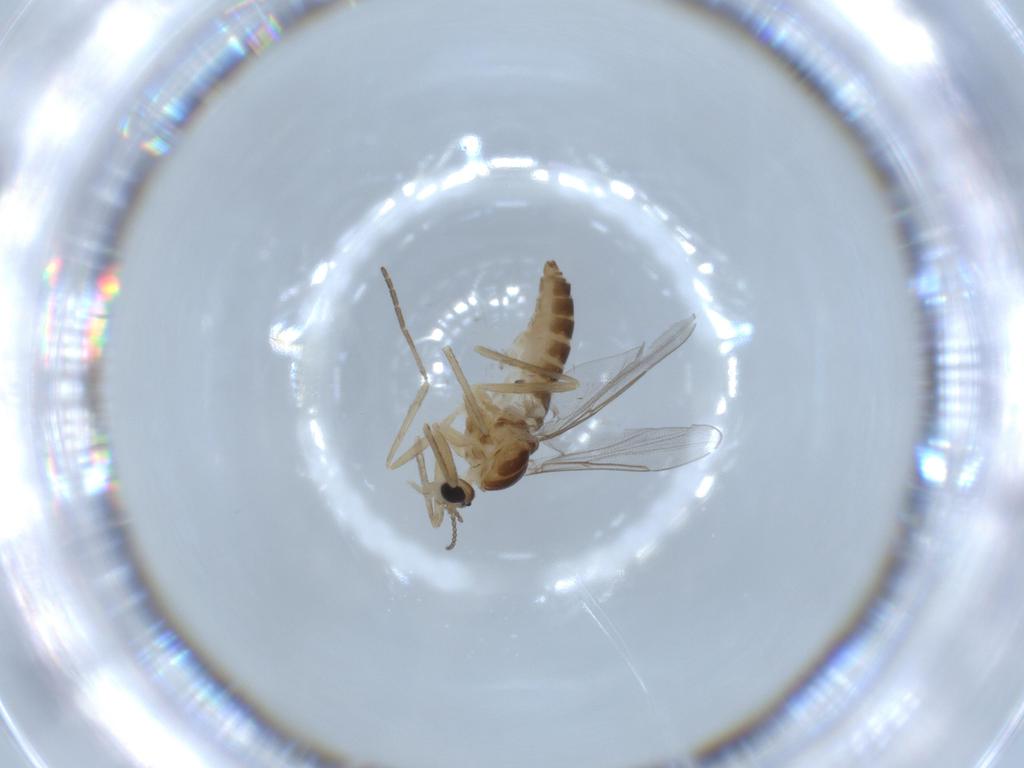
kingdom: Animalia
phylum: Arthropoda
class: Insecta
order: Diptera
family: Cecidomyiidae
